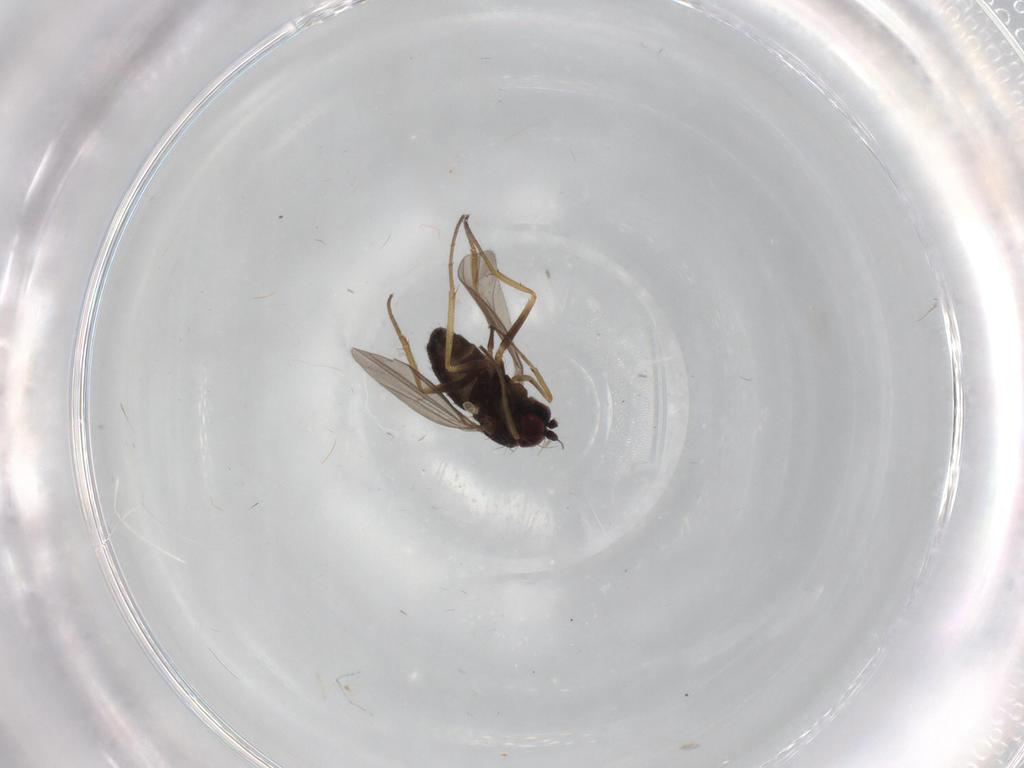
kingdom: Animalia
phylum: Arthropoda
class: Insecta
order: Diptera
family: Dolichopodidae
